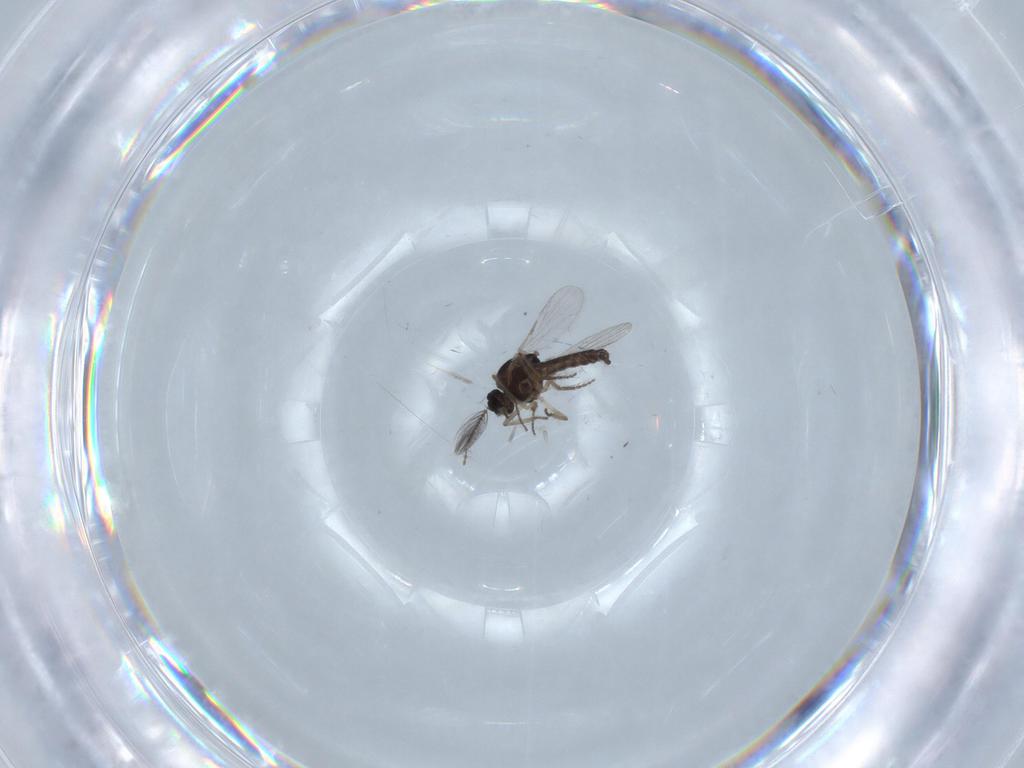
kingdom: Animalia
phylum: Arthropoda
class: Insecta
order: Diptera
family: Ceratopogonidae
